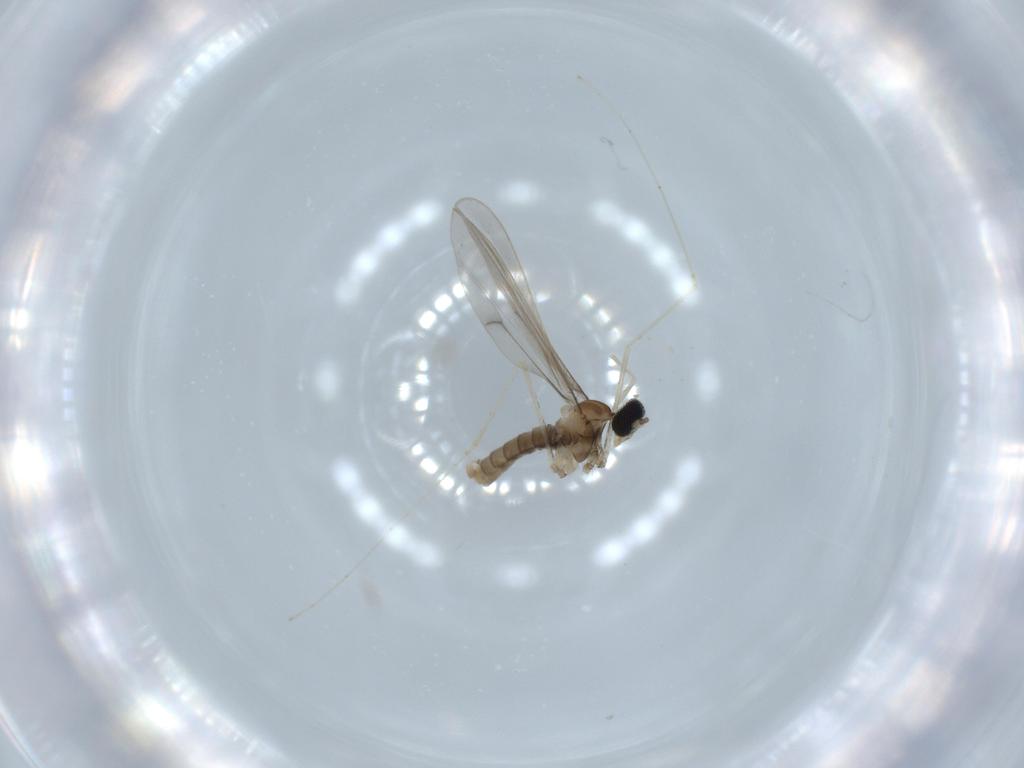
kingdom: Animalia
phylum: Arthropoda
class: Insecta
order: Diptera
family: Cecidomyiidae
